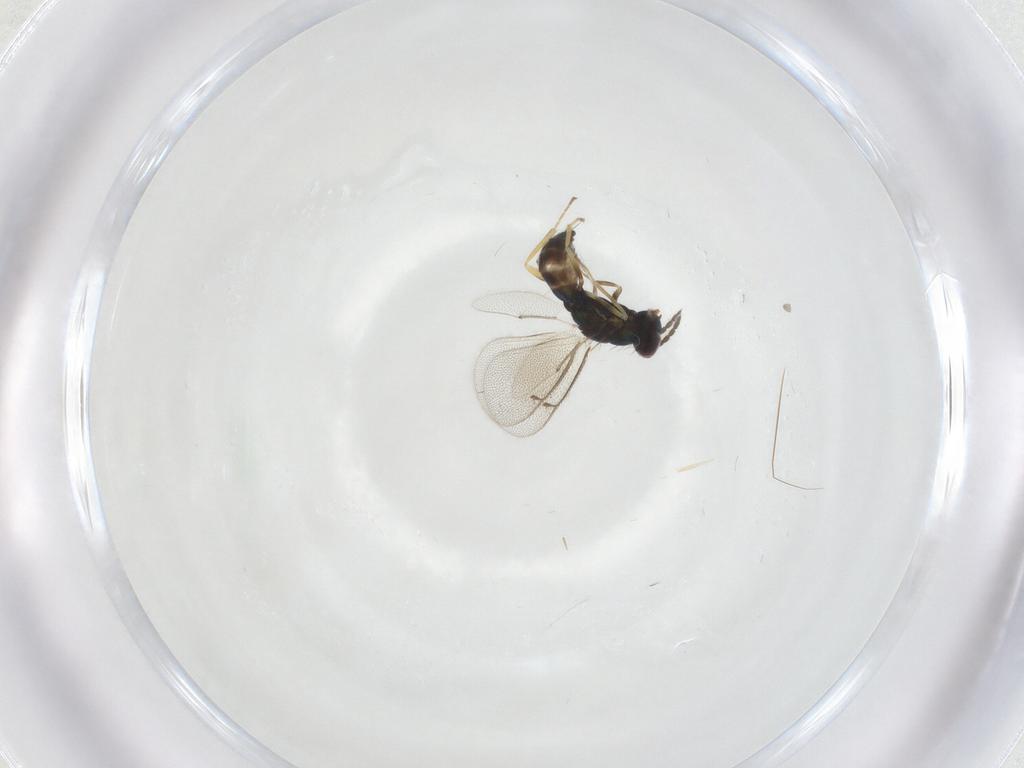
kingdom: Animalia
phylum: Arthropoda
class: Insecta
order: Hymenoptera
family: Eulophidae
